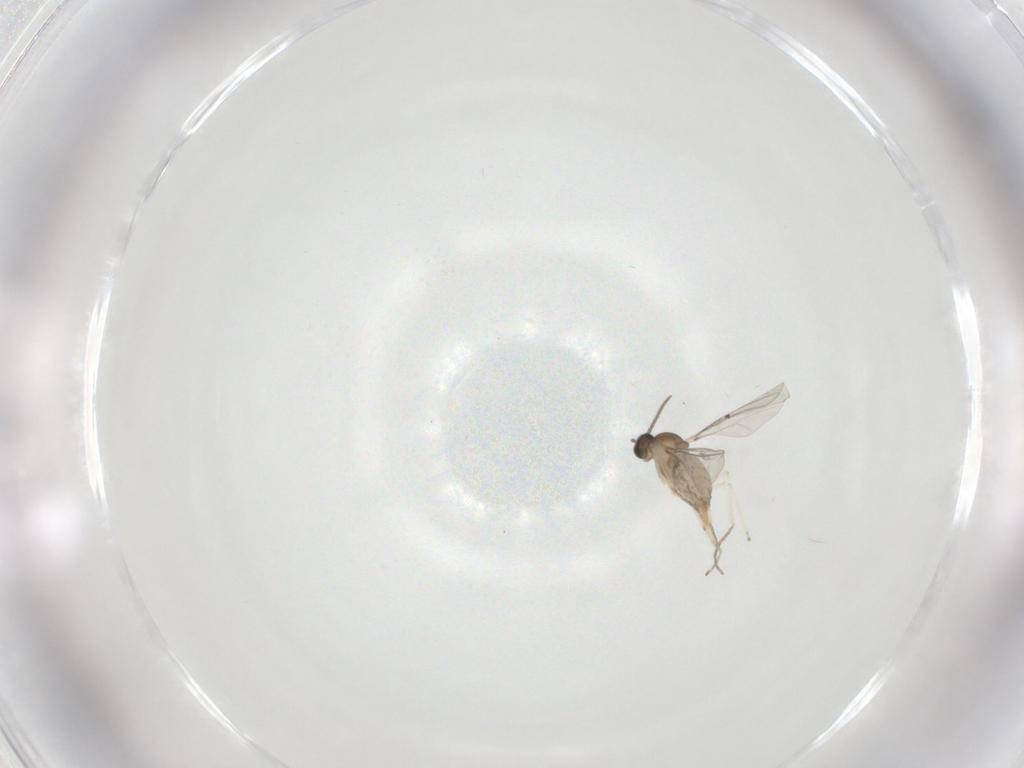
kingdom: Animalia
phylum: Arthropoda
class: Insecta
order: Diptera
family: Cecidomyiidae
